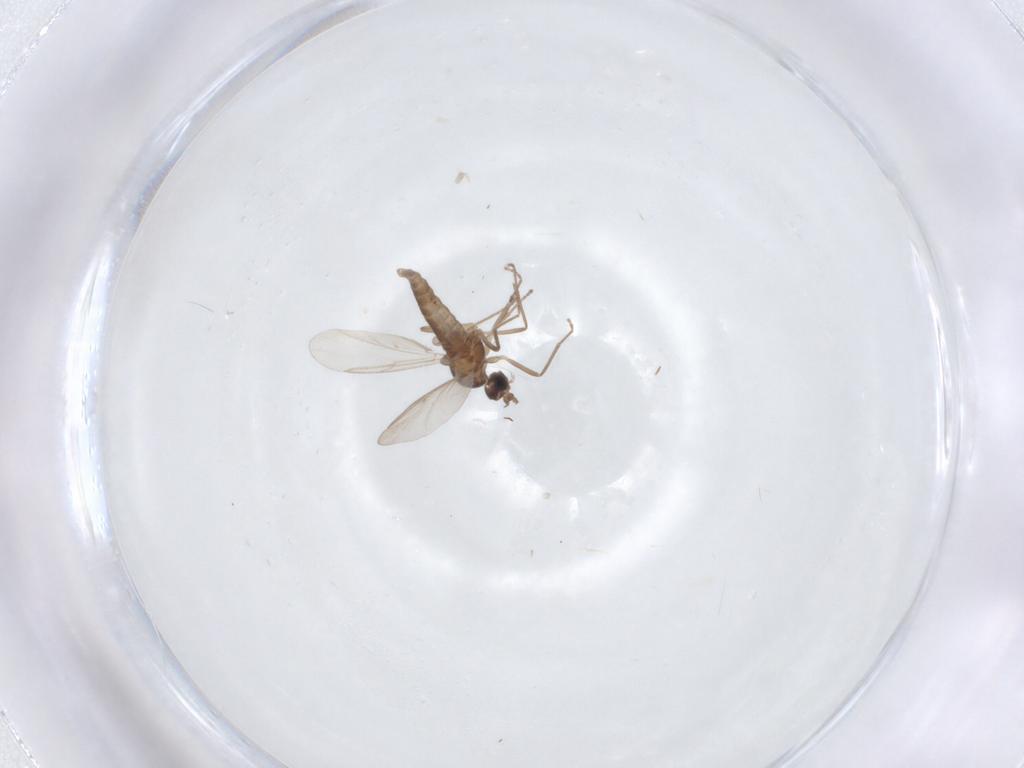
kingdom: Animalia
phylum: Arthropoda
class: Insecta
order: Diptera
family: Cecidomyiidae
